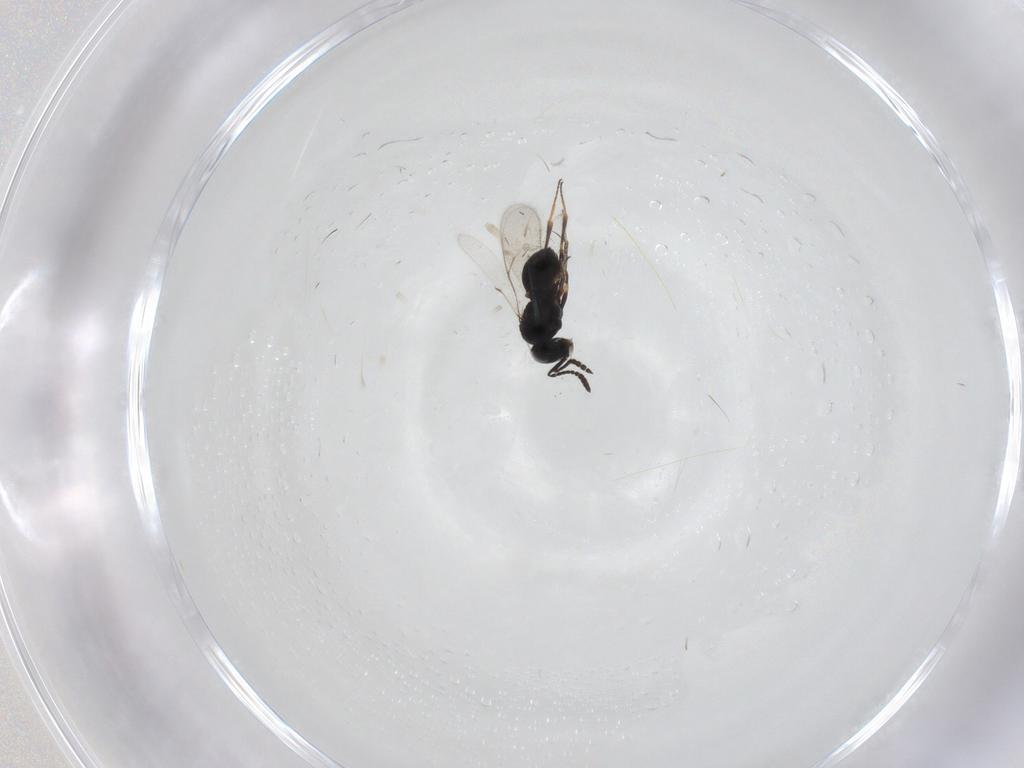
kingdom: Animalia
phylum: Arthropoda
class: Insecta
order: Hymenoptera
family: Scelionidae
